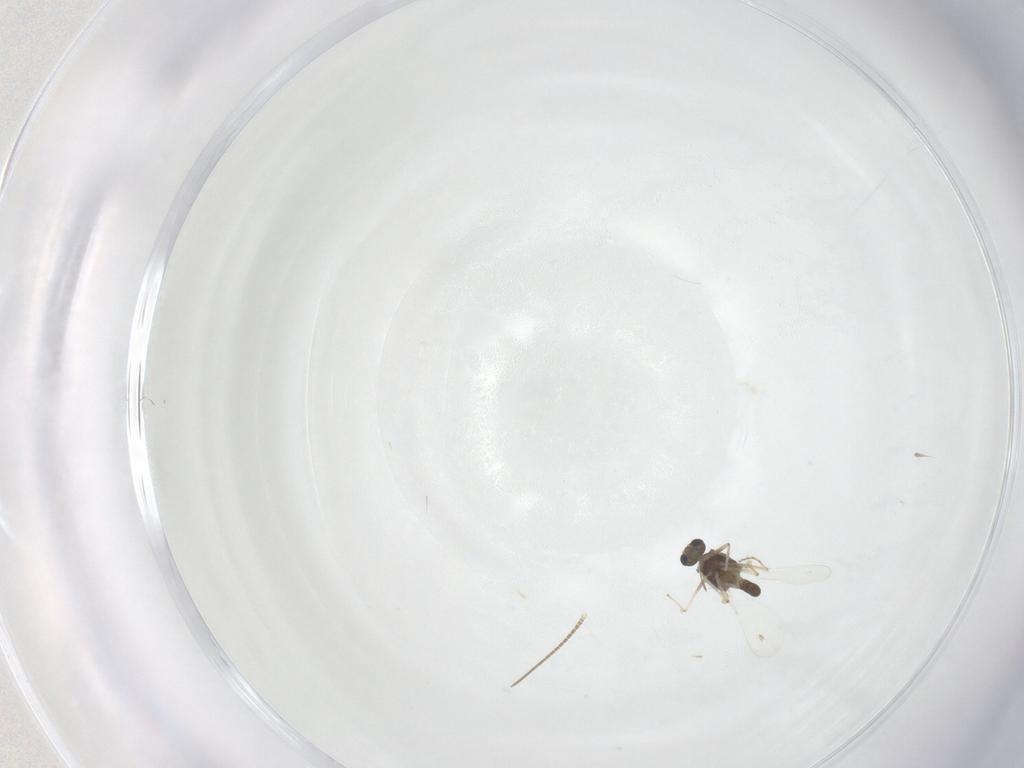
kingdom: Animalia
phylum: Arthropoda
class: Insecta
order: Diptera
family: Chironomidae
